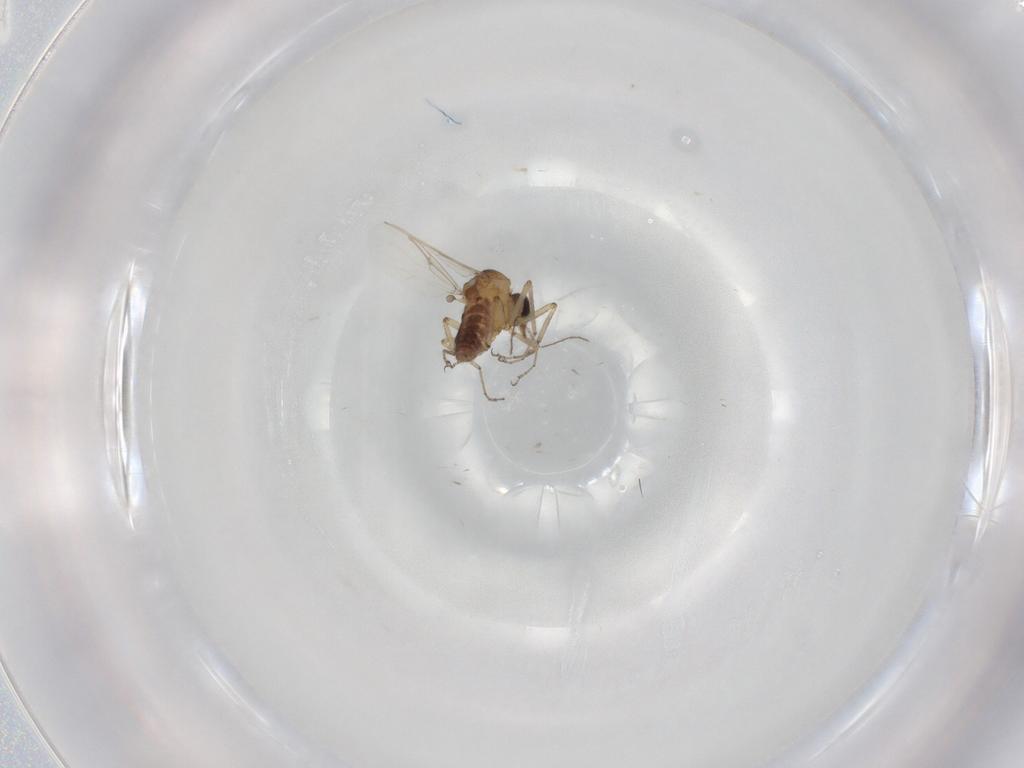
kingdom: Animalia
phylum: Arthropoda
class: Insecta
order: Diptera
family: Ceratopogonidae
